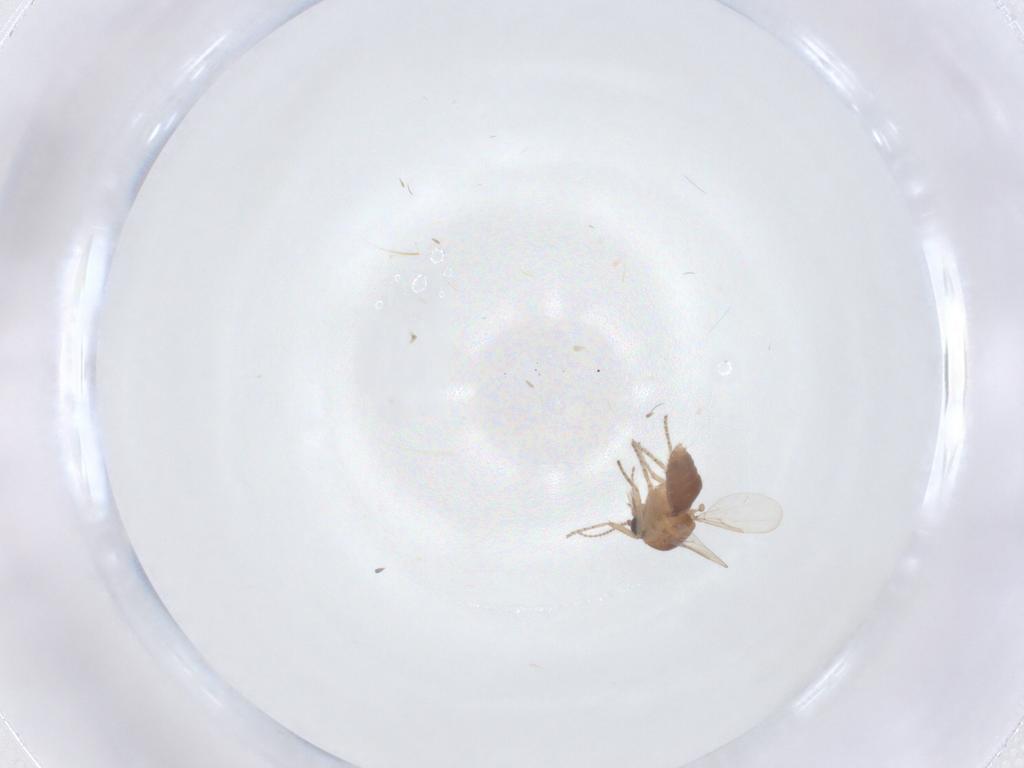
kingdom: Animalia
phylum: Arthropoda
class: Insecta
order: Diptera
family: Ceratopogonidae
